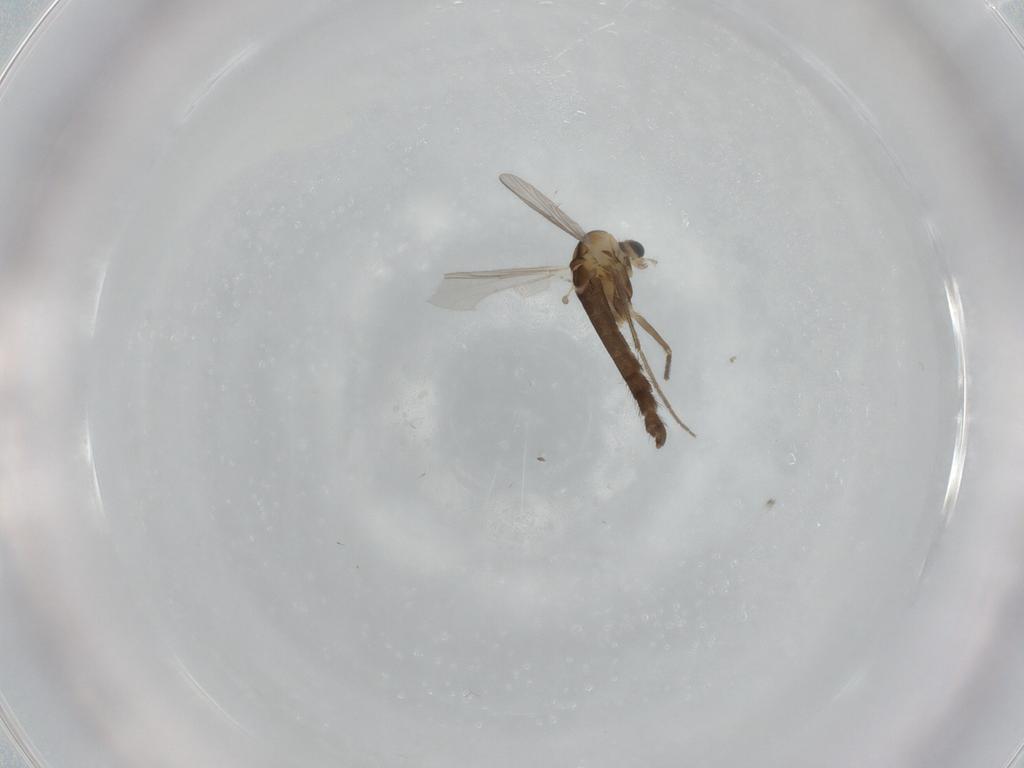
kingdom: Animalia
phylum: Arthropoda
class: Insecta
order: Diptera
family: Chironomidae
